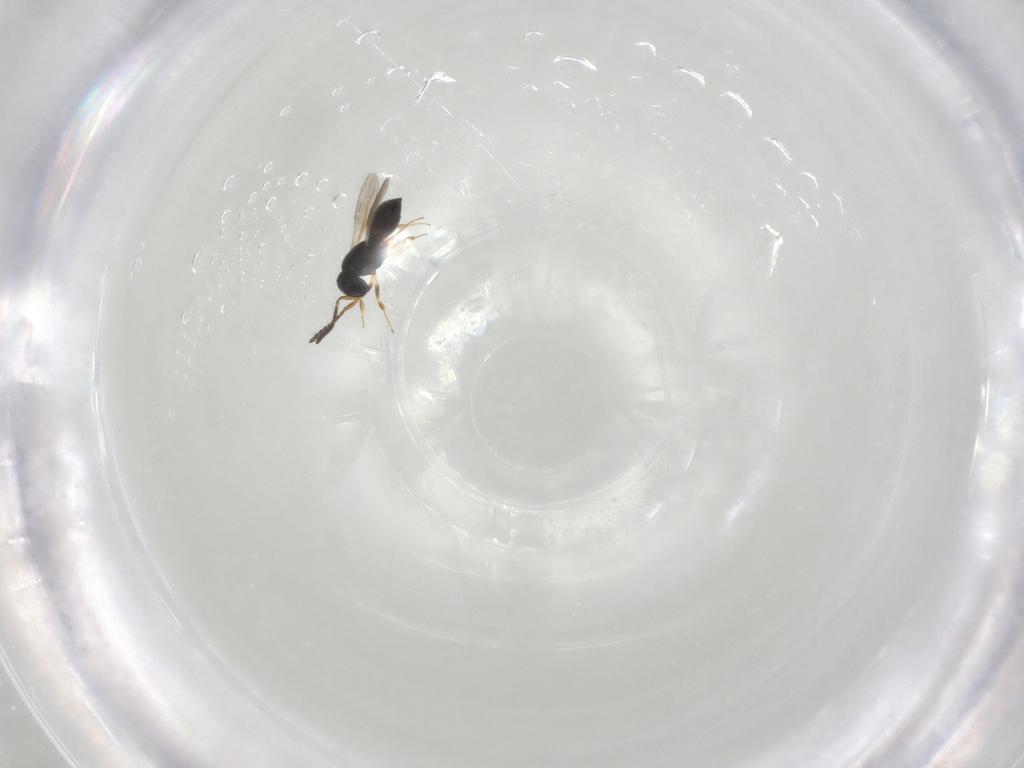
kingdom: Animalia
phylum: Arthropoda
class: Insecta
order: Hymenoptera
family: Scelionidae
